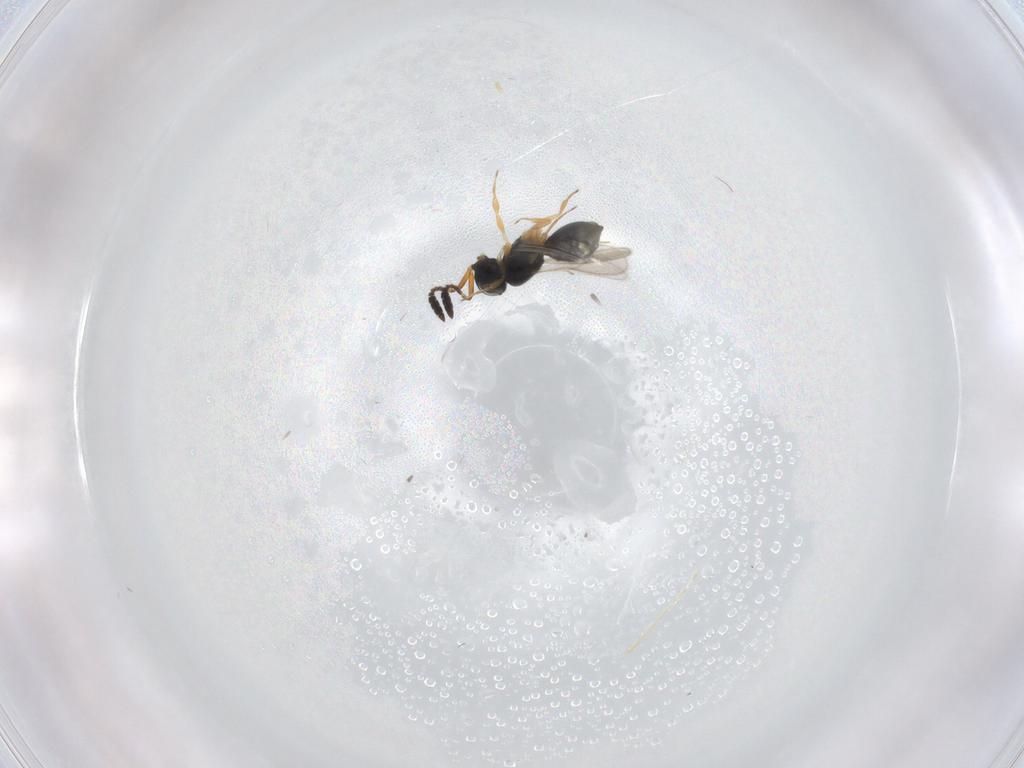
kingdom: Animalia
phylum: Arthropoda
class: Insecta
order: Hymenoptera
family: Scelionidae
